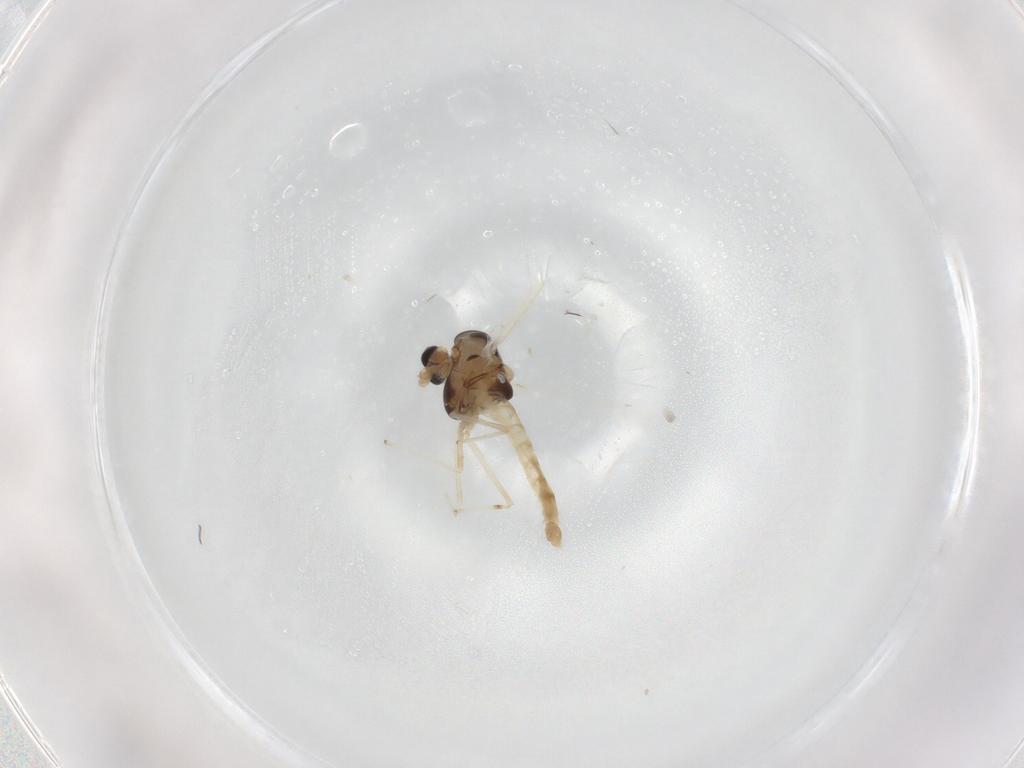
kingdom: Animalia
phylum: Arthropoda
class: Insecta
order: Diptera
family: Chironomidae
